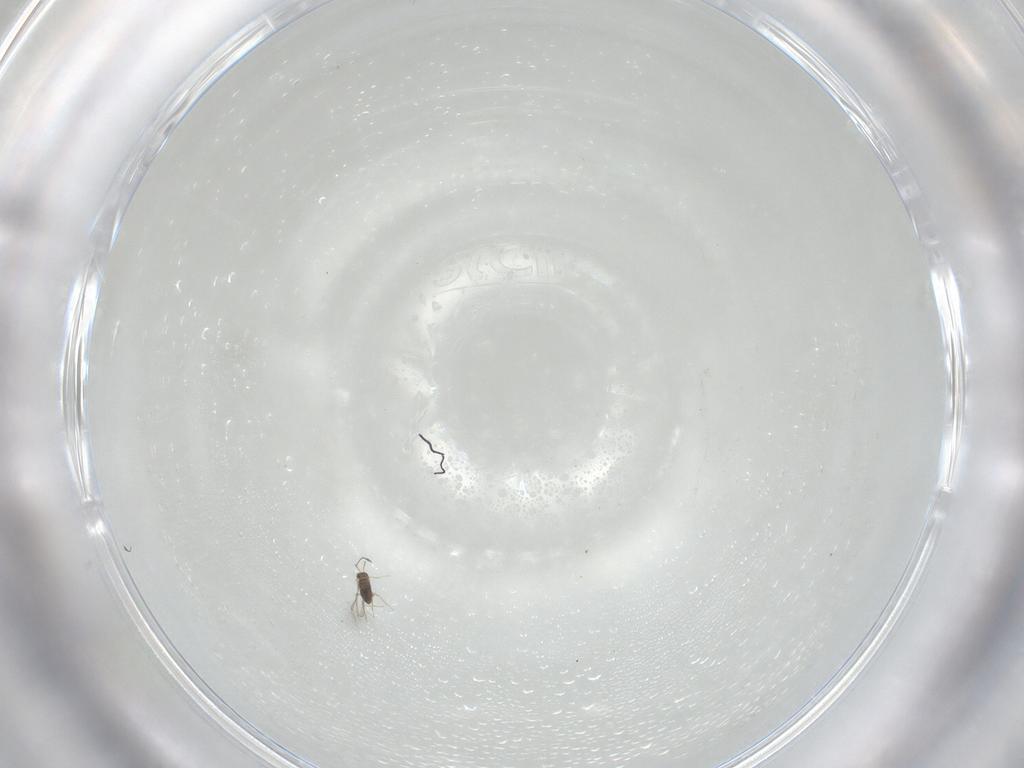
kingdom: Animalia
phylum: Arthropoda
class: Insecta
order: Hymenoptera
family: Mymaridae
